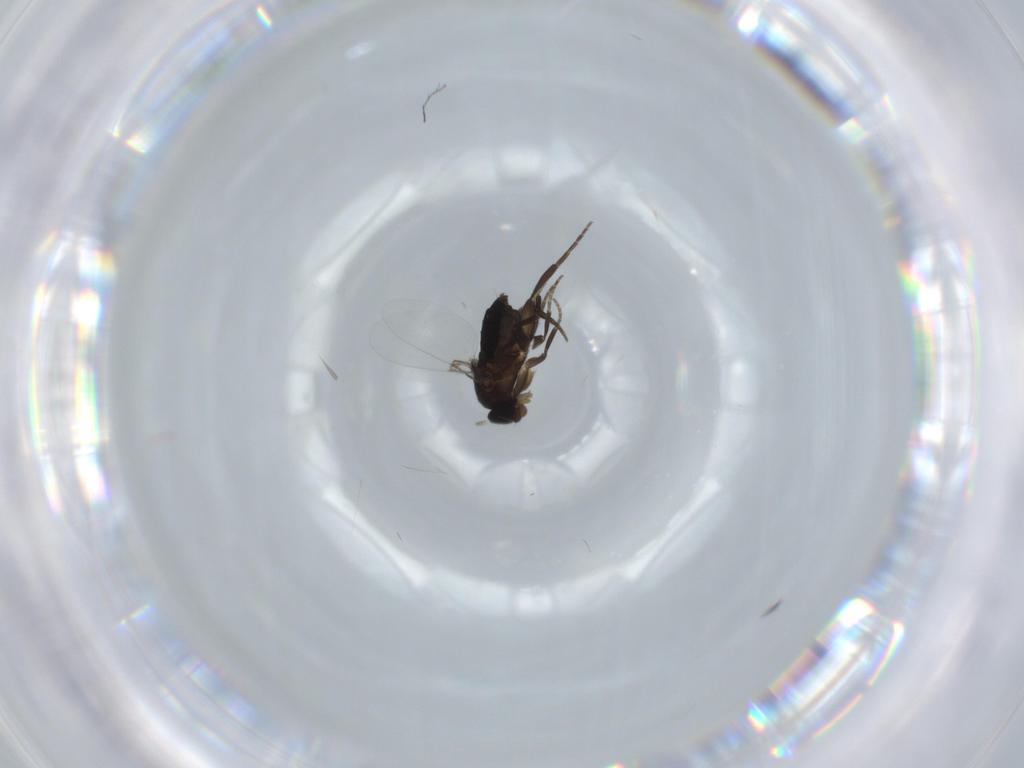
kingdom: Animalia
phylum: Arthropoda
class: Insecta
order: Diptera
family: Phoridae
